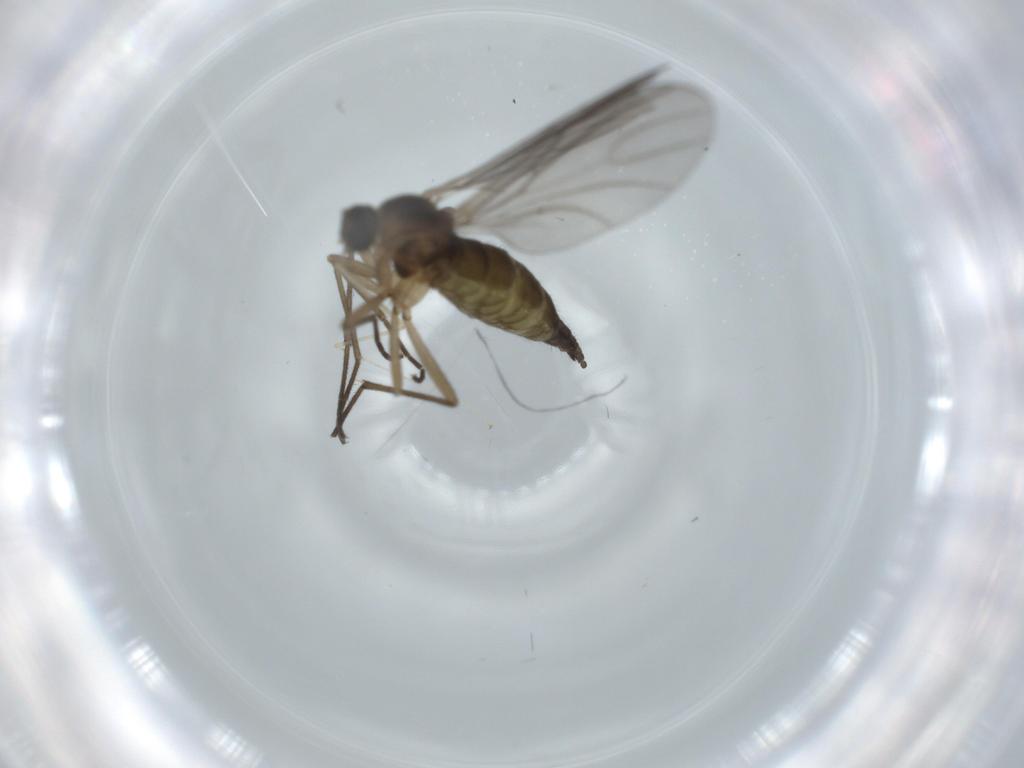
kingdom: Animalia
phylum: Arthropoda
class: Insecta
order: Diptera
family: Sciaridae
